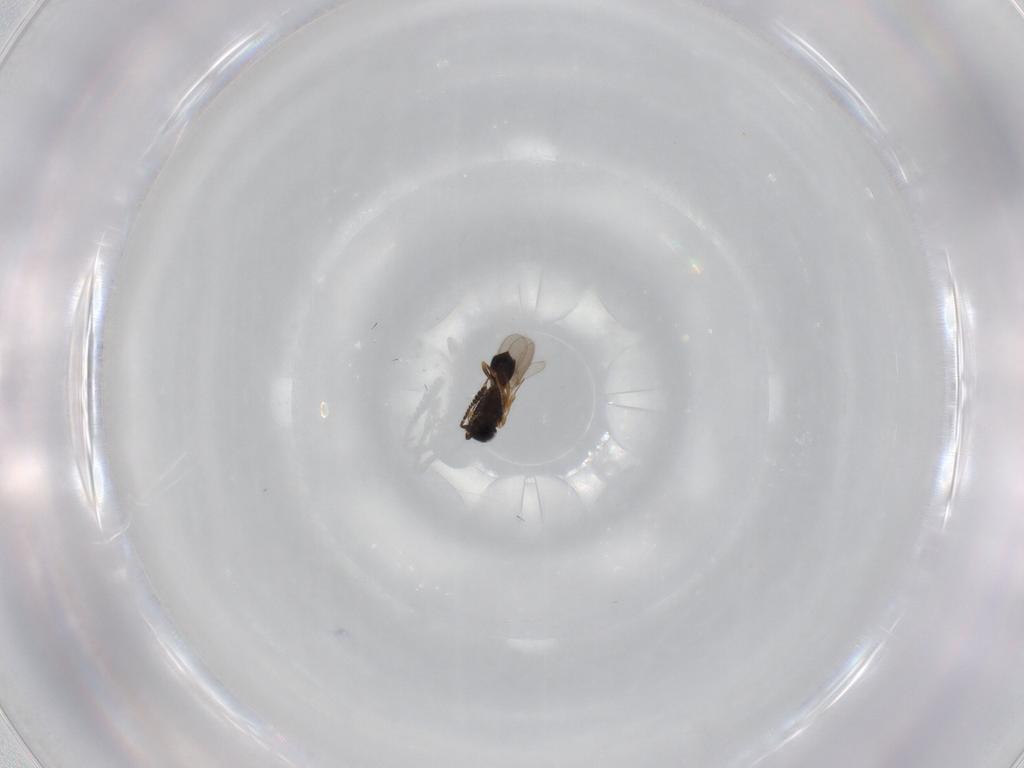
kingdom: Animalia
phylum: Arthropoda
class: Insecta
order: Hymenoptera
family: Scelionidae
